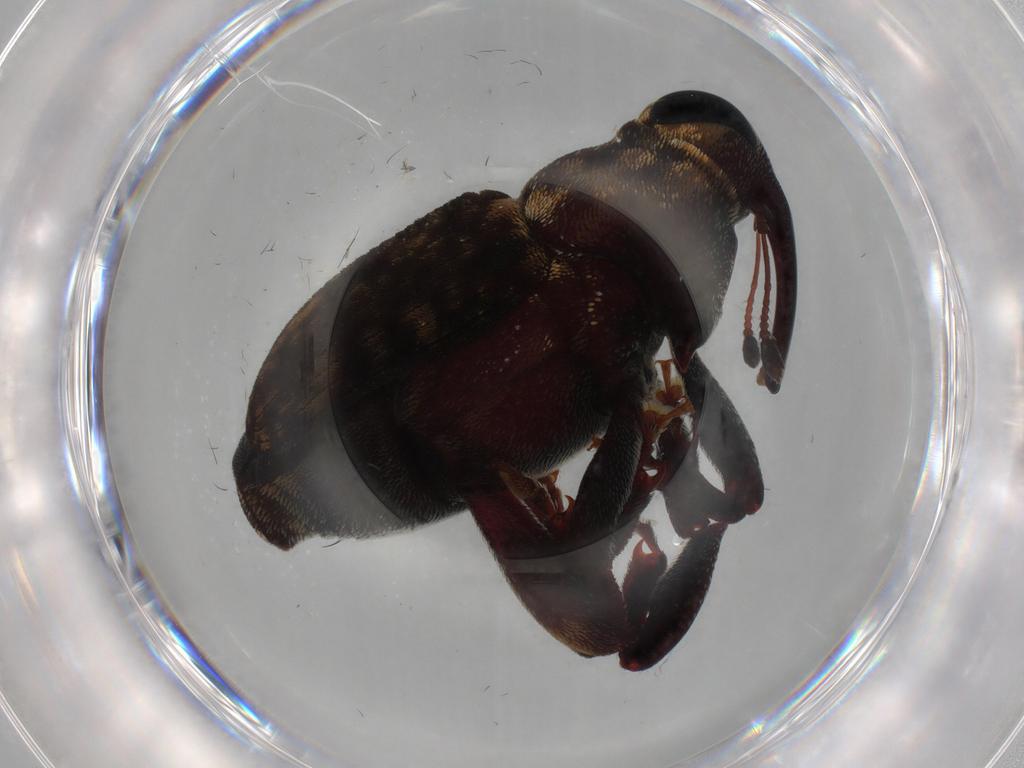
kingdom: Animalia
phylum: Arthropoda
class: Insecta
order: Coleoptera
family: Curculionidae
